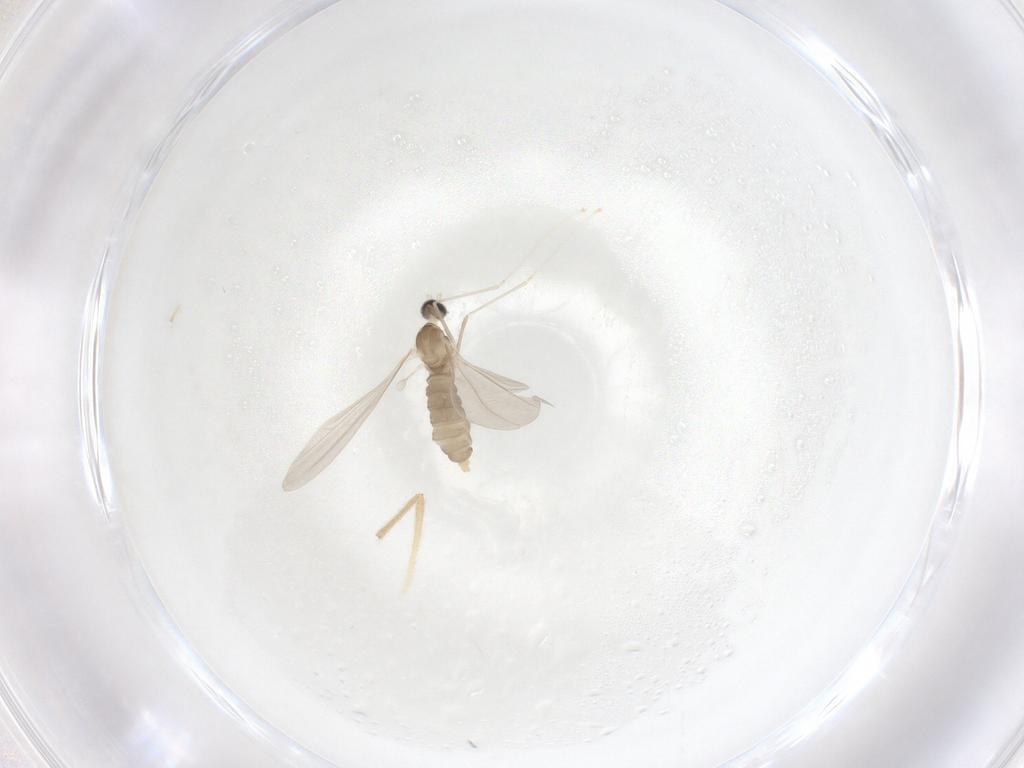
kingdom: Animalia
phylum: Arthropoda
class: Insecta
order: Diptera
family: Cecidomyiidae
